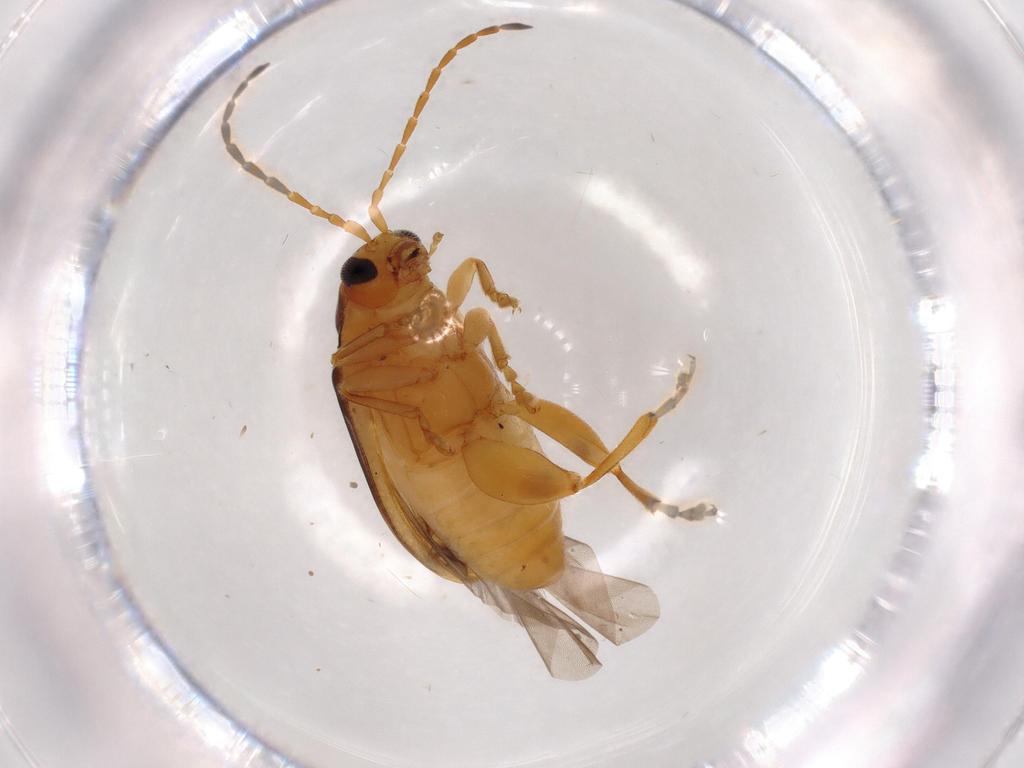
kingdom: Animalia
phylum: Arthropoda
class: Insecta
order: Coleoptera
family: Chrysomelidae
